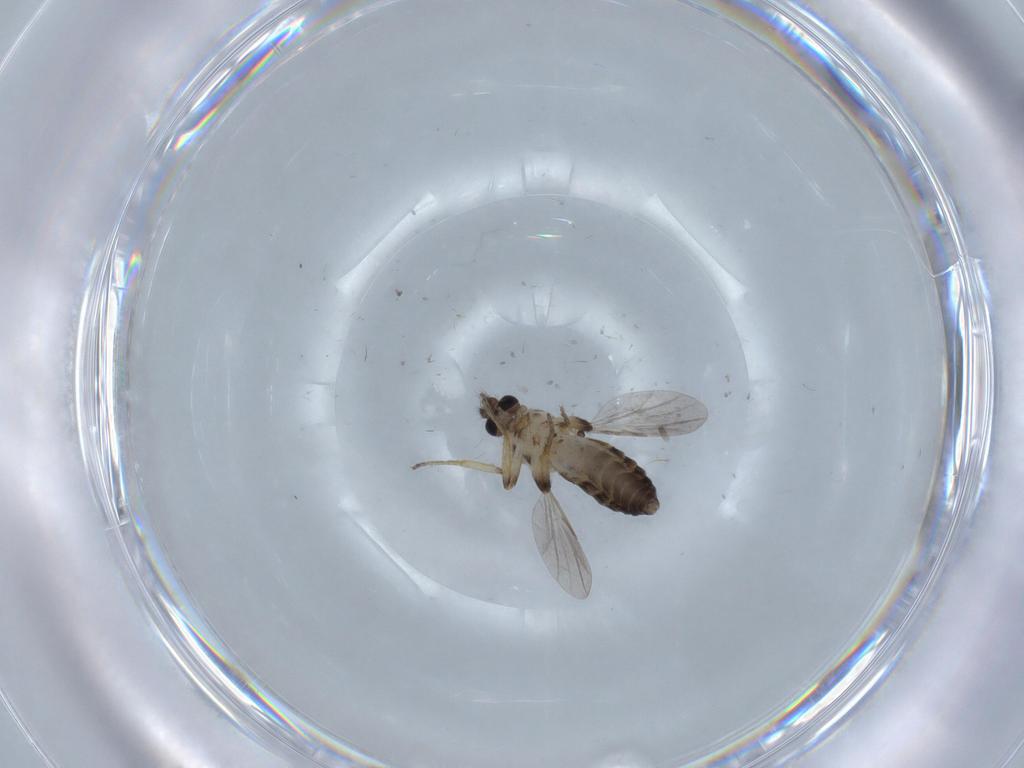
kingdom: Animalia
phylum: Arthropoda
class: Insecta
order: Diptera
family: Ceratopogonidae
